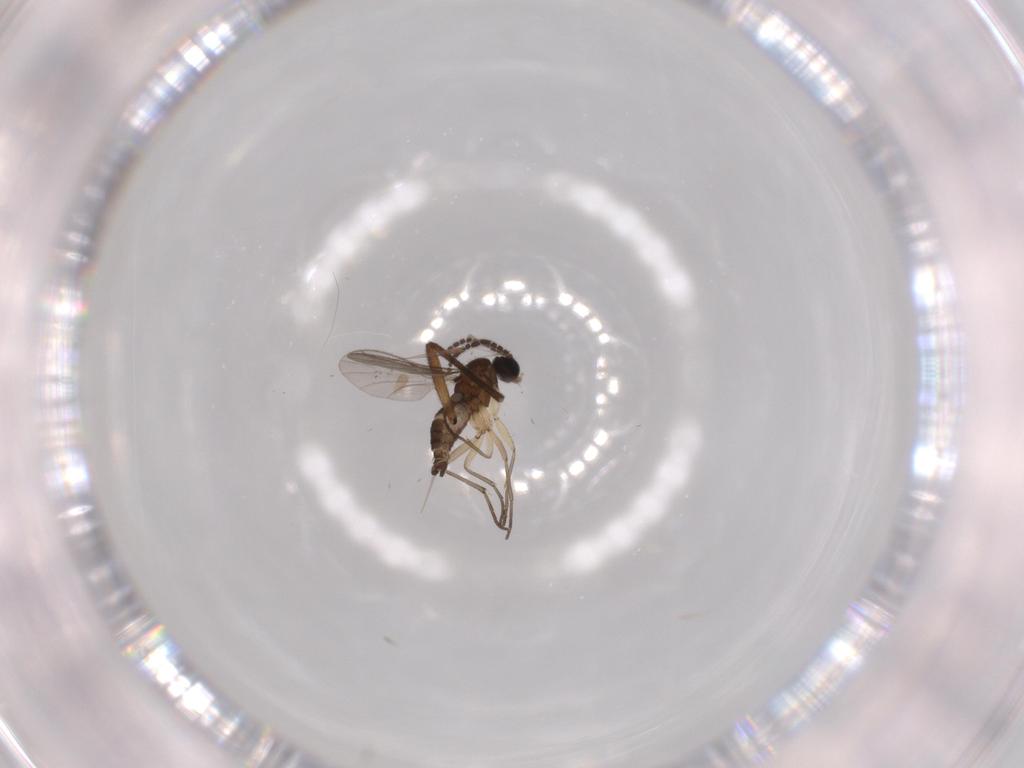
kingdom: Animalia
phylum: Arthropoda
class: Insecta
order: Diptera
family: Sciaridae
